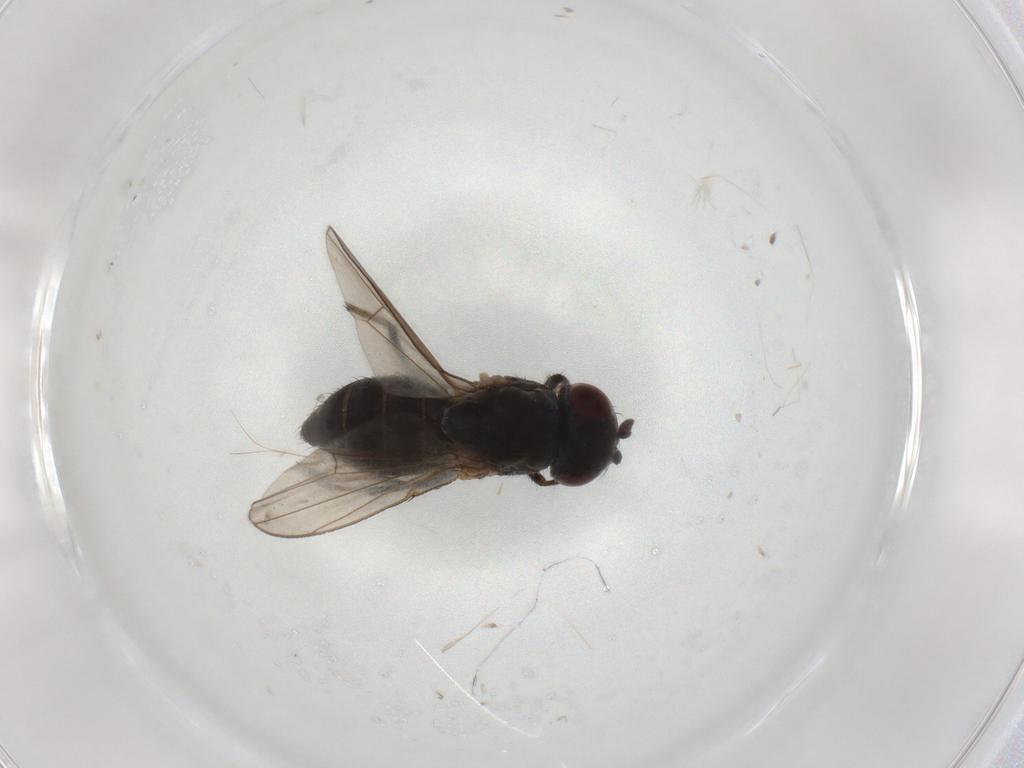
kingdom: Animalia
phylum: Arthropoda
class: Insecta
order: Diptera
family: Ephydridae
